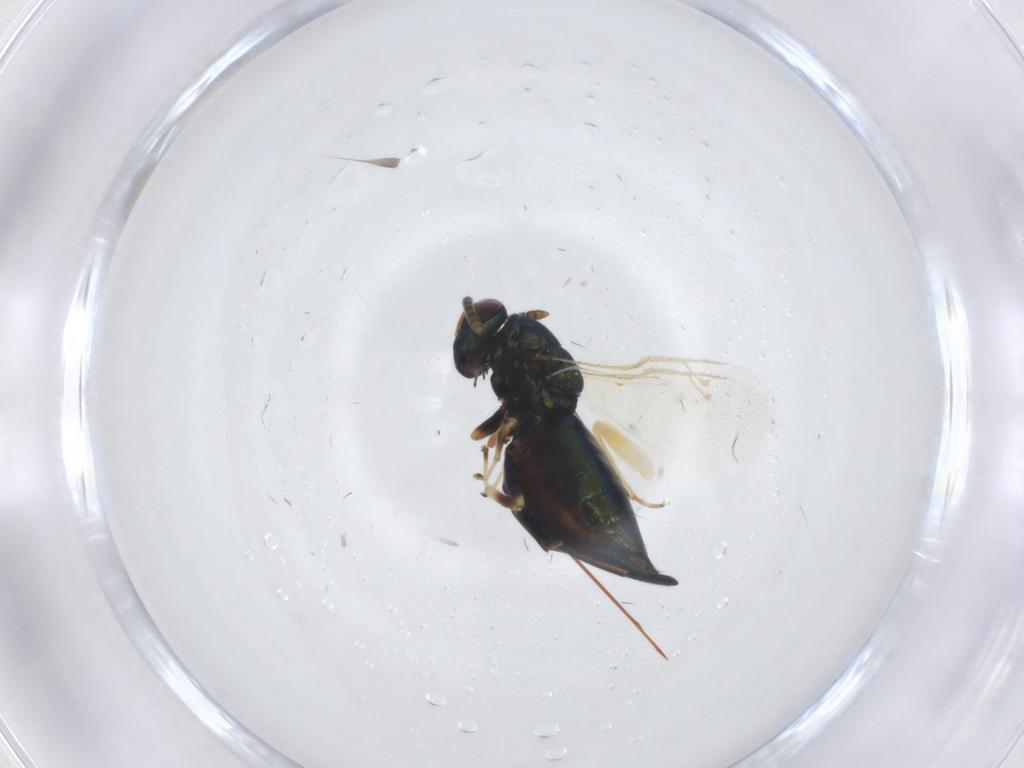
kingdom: Animalia
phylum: Arthropoda
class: Insecta
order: Hymenoptera
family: Pteromalidae
